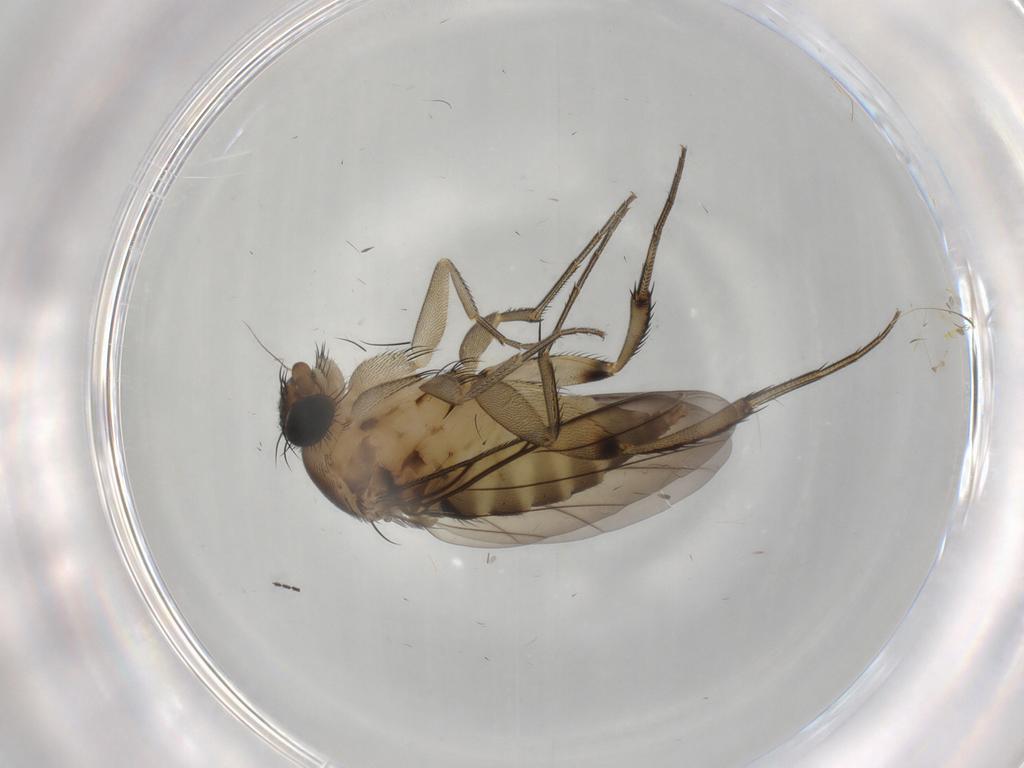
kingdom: Animalia
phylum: Arthropoda
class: Insecta
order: Diptera
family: Phoridae
